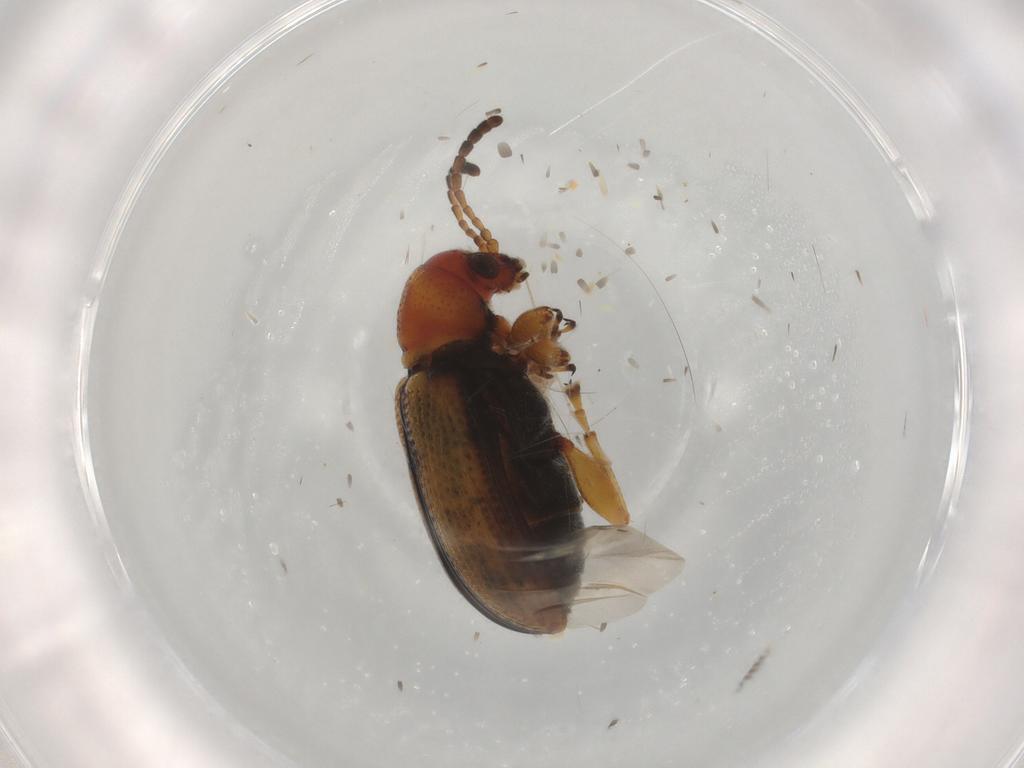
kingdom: Animalia
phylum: Arthropoda
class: Insecta
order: Coleoptera
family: Chrysomelidae
